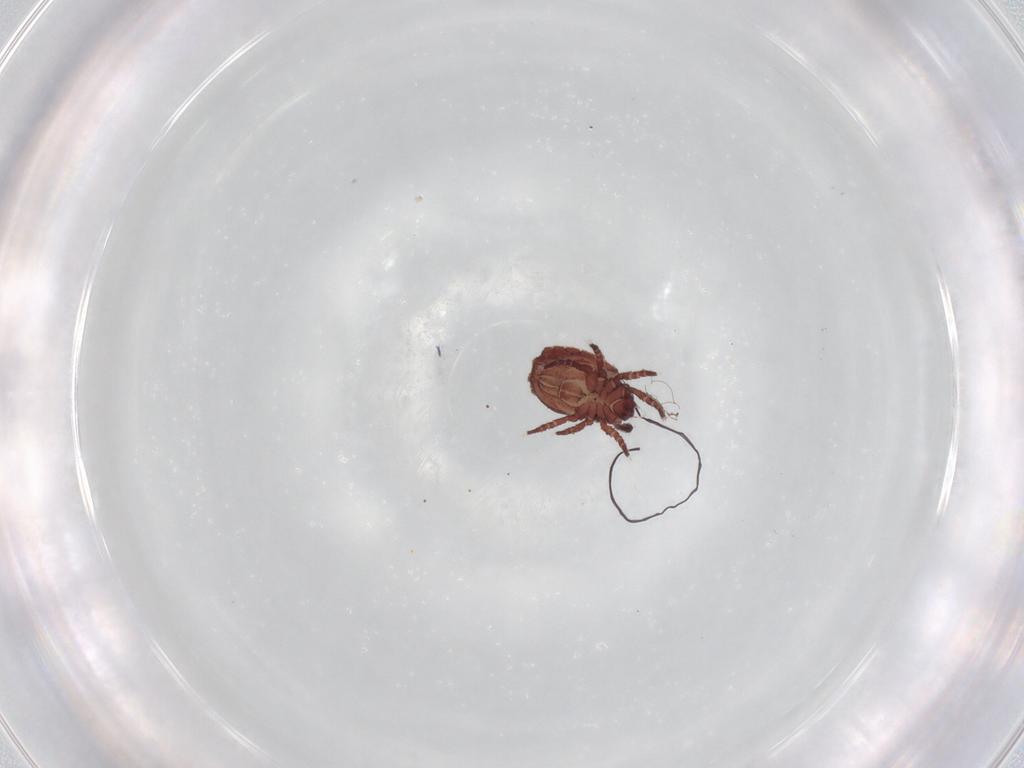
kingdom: Animalia
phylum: Arthropoda
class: Arachnida
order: Sarcoptiformes
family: Crotoniidae
